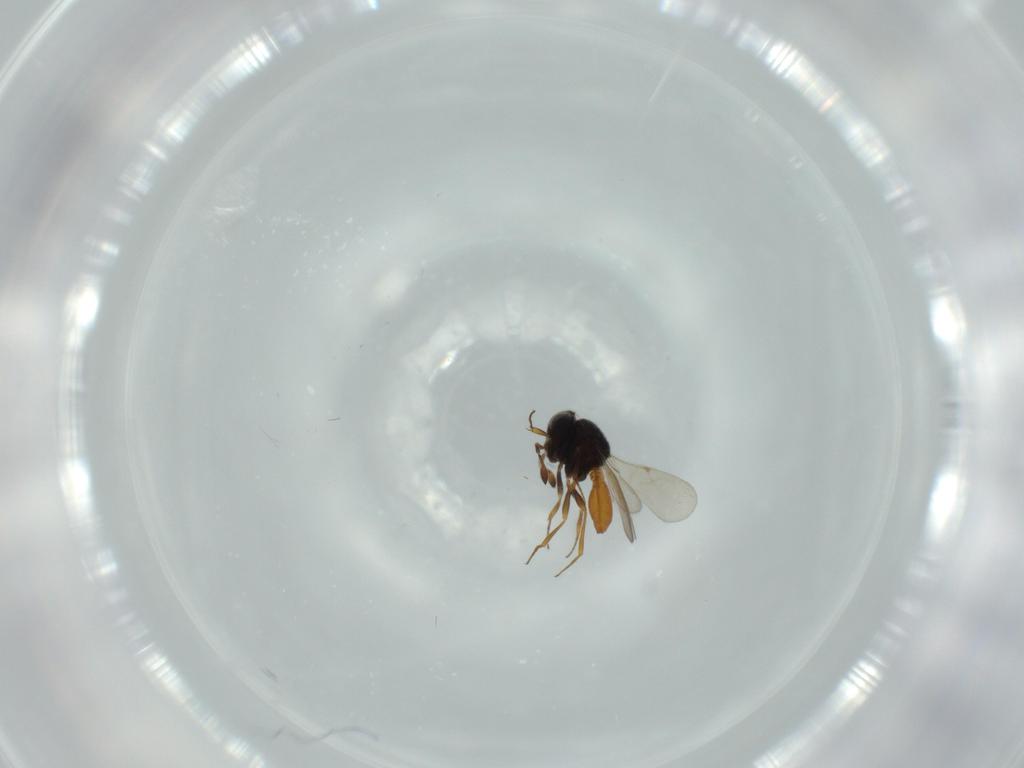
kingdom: Animalia
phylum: Arthropoda
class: Insecta
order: Hymenoptera
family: Scelionidae
